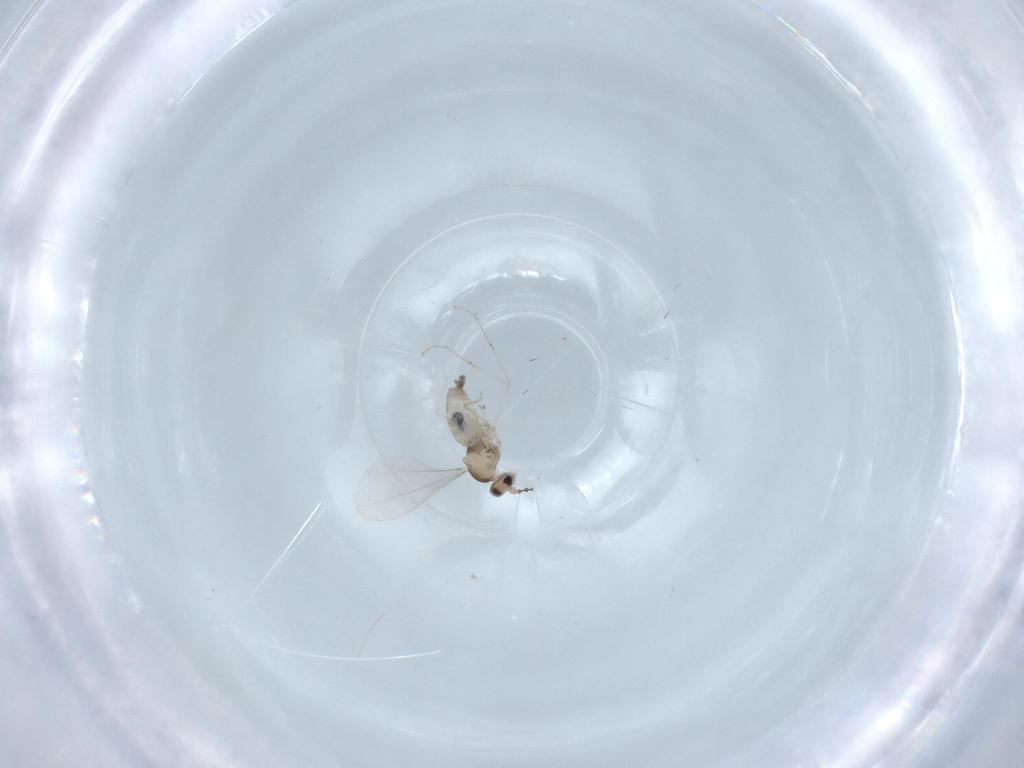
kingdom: Animalia
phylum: Arthropoda
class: Insecta
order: Diptera
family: Cecidomyiidae
